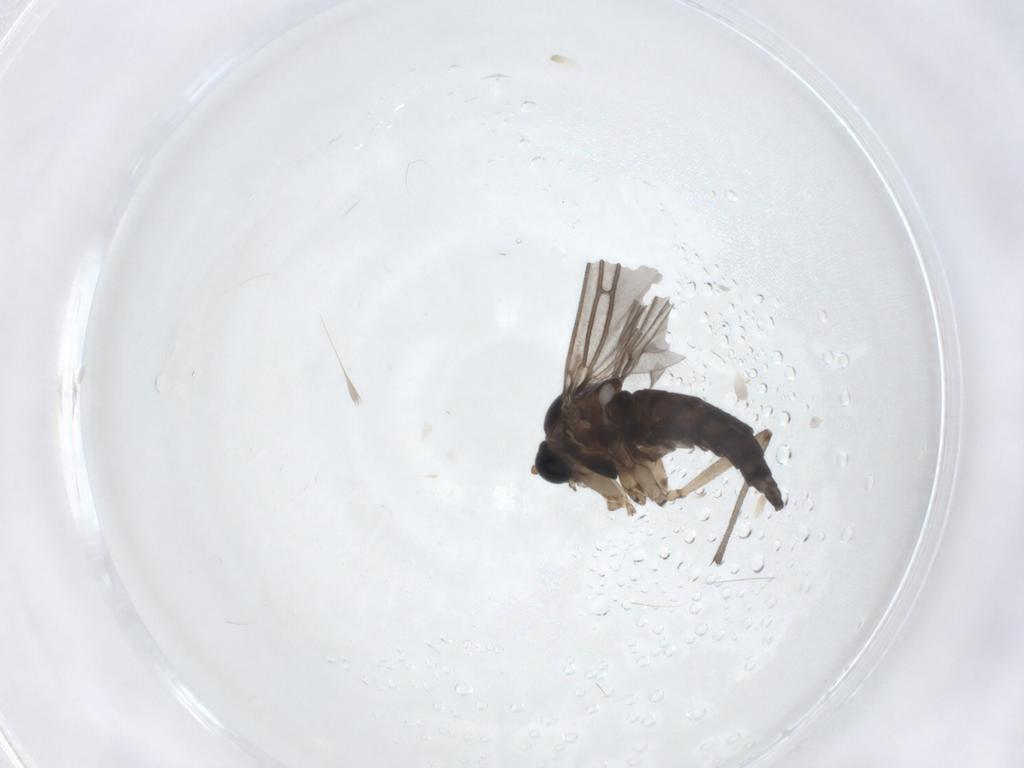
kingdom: Animalia
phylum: Arthropoda
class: Insecta
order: Diptera
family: Sciaridae
